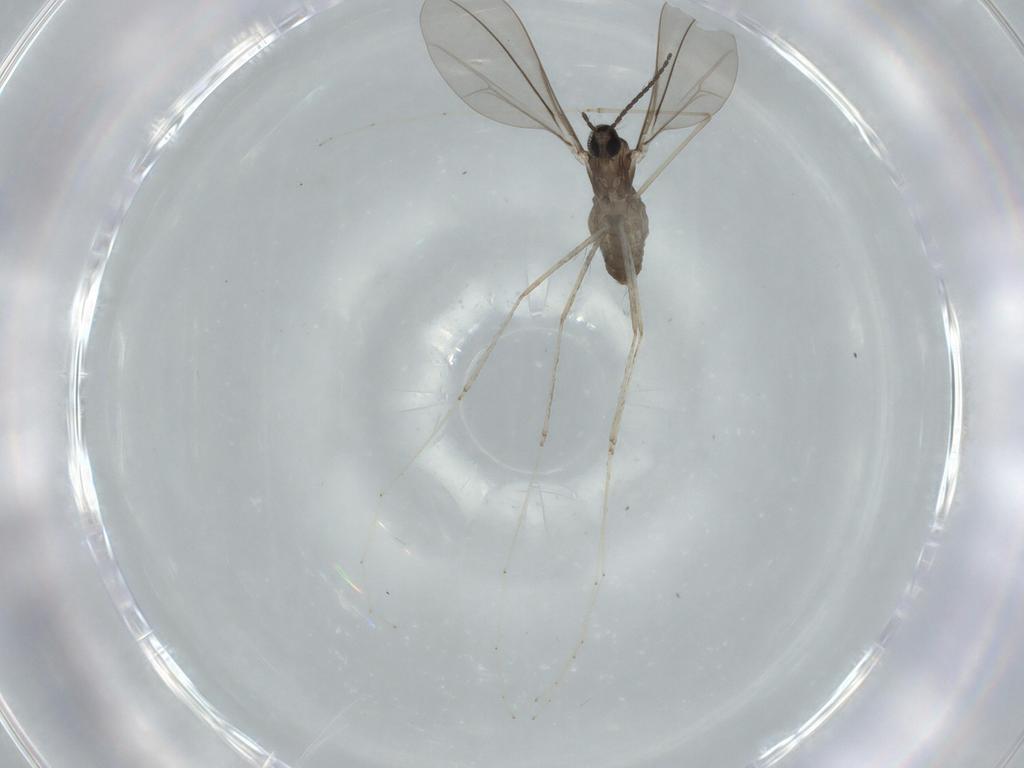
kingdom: Animalia
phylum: Arthropoda
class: Insecta
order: Diptera
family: Cecidomyiidae
